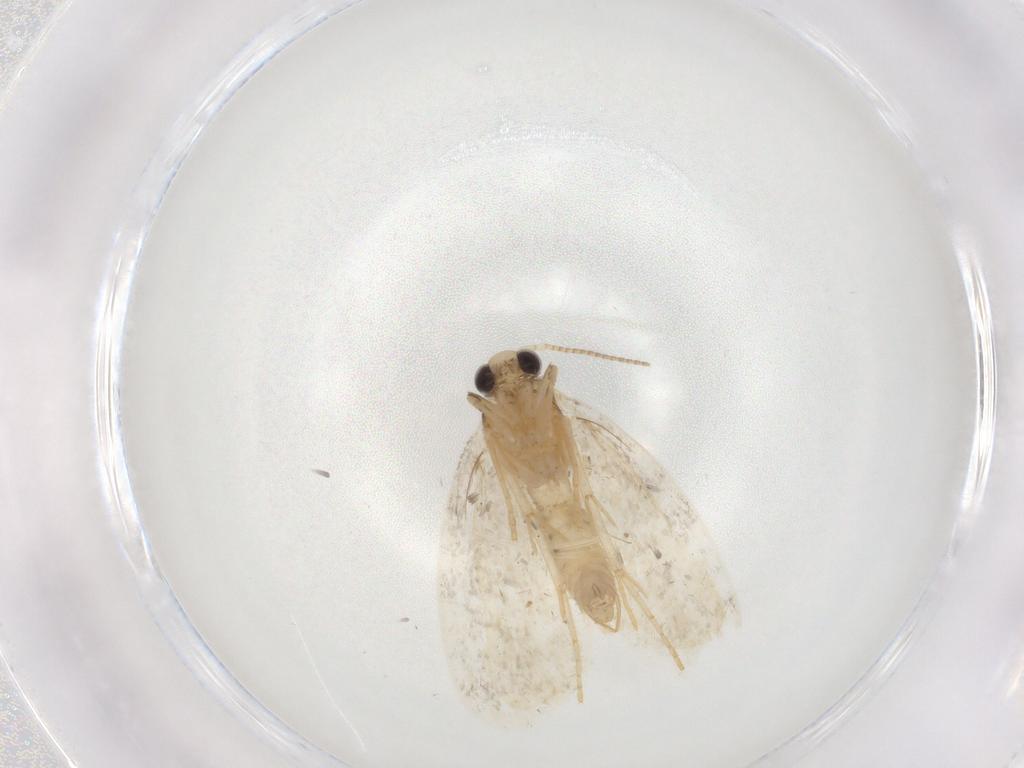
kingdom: Animalia
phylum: Arthropoda
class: Insecta
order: Lepidoptera
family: Psychidae
